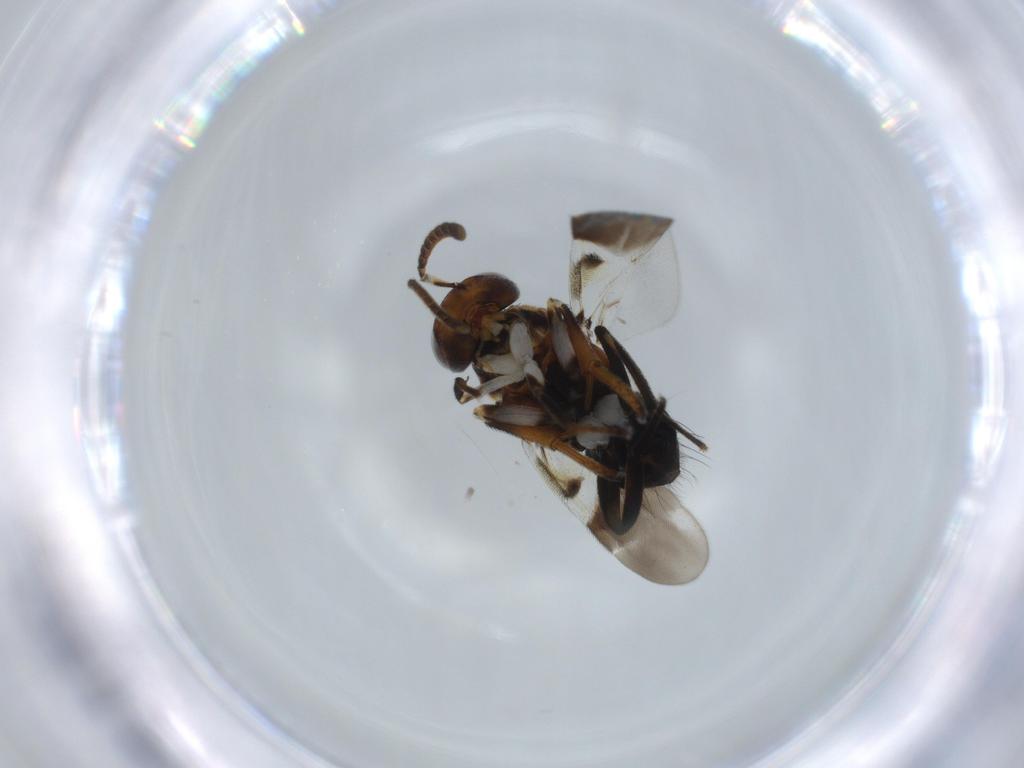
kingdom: Animalia
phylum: Arthropoda
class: Insecta
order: Hymenoptera
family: Encyrtidae
